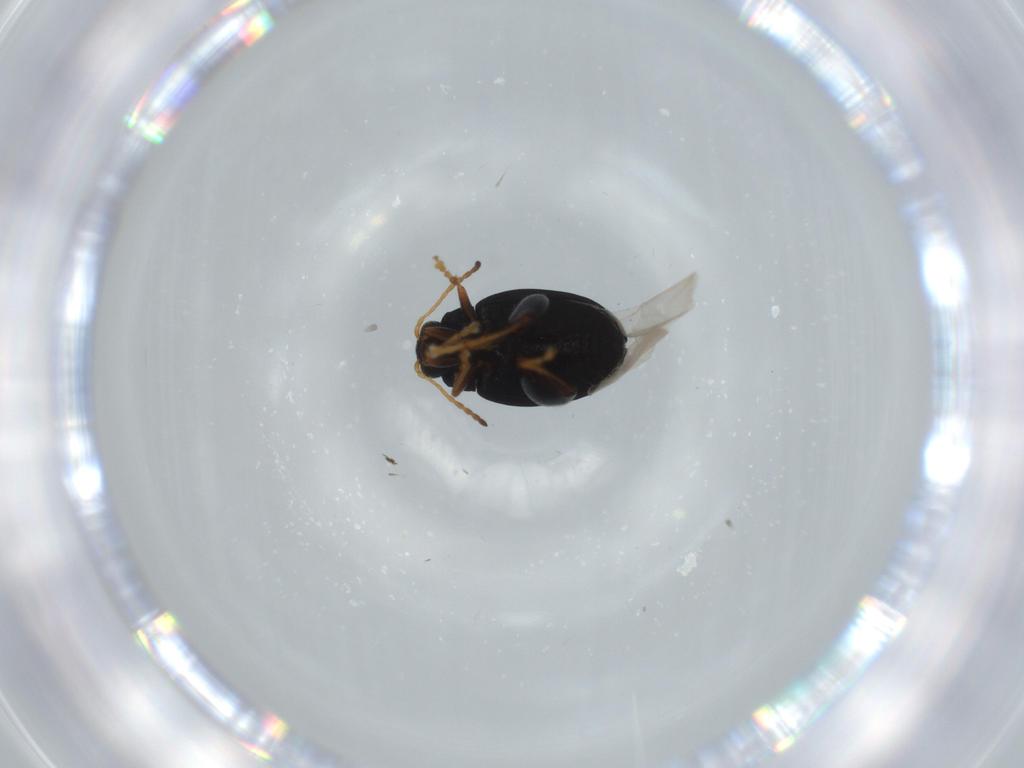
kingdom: Animalia
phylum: Arthropoda
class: Insecta
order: Coleoptera
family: Chrysomelidae
